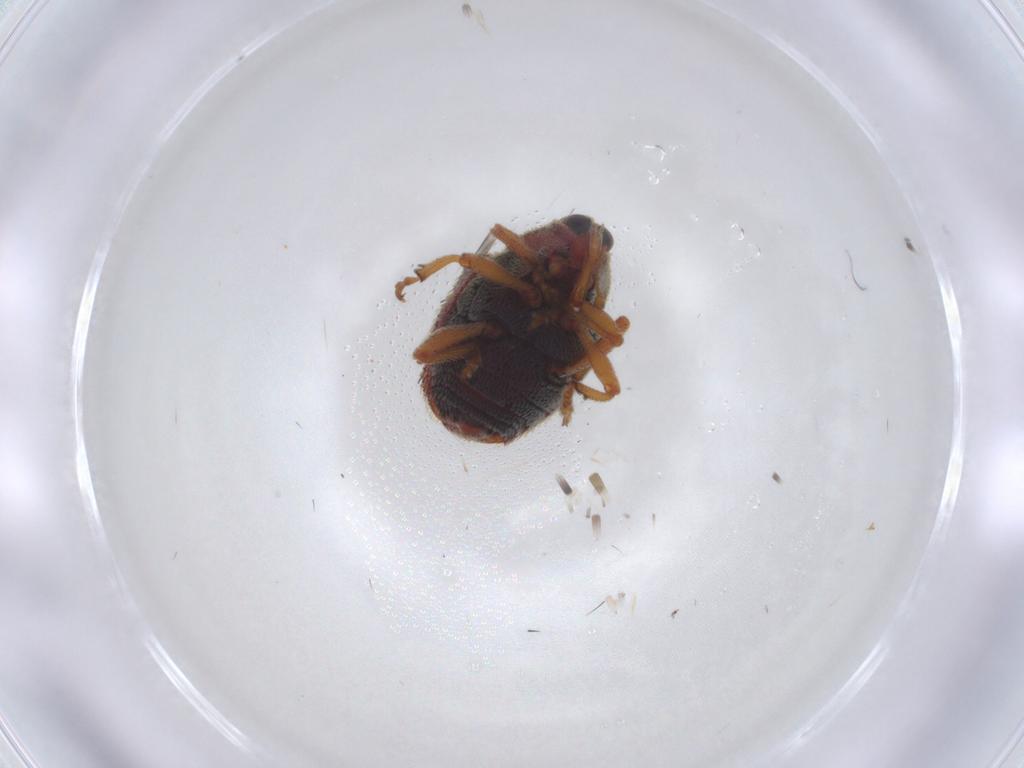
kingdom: Animalia
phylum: Arthropoda
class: Insecta
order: Coleoptera
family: Curculionidae
